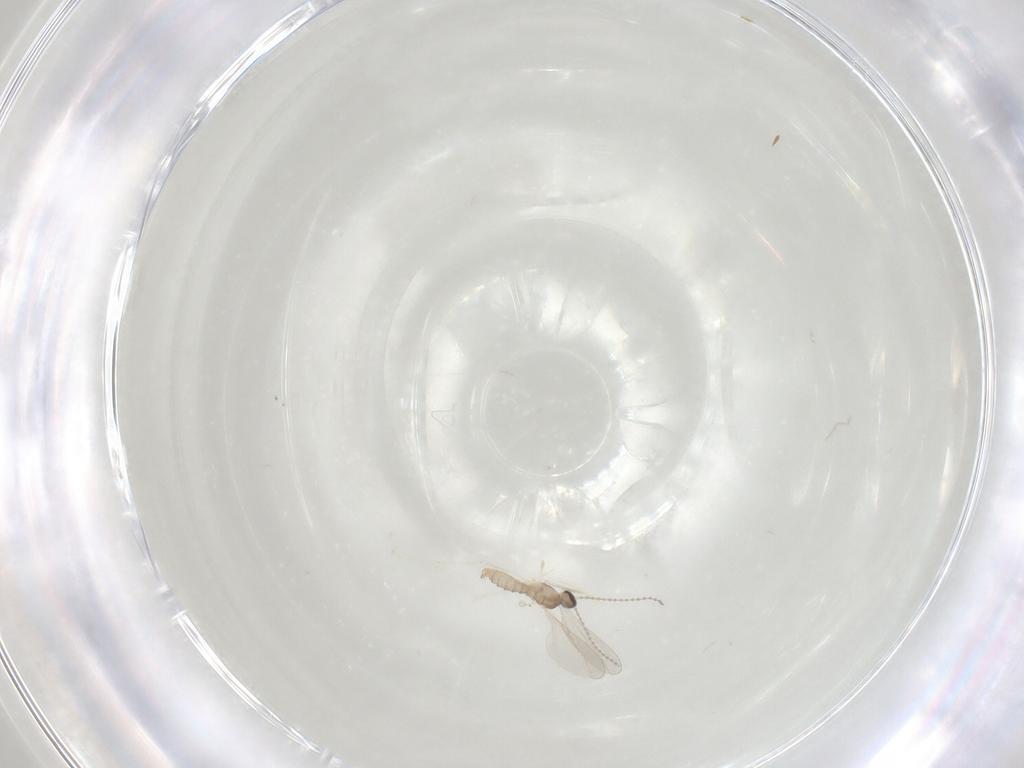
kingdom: Animalia
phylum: Arthropoda
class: Insecta
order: Diptera
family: Cecidomyiidae
